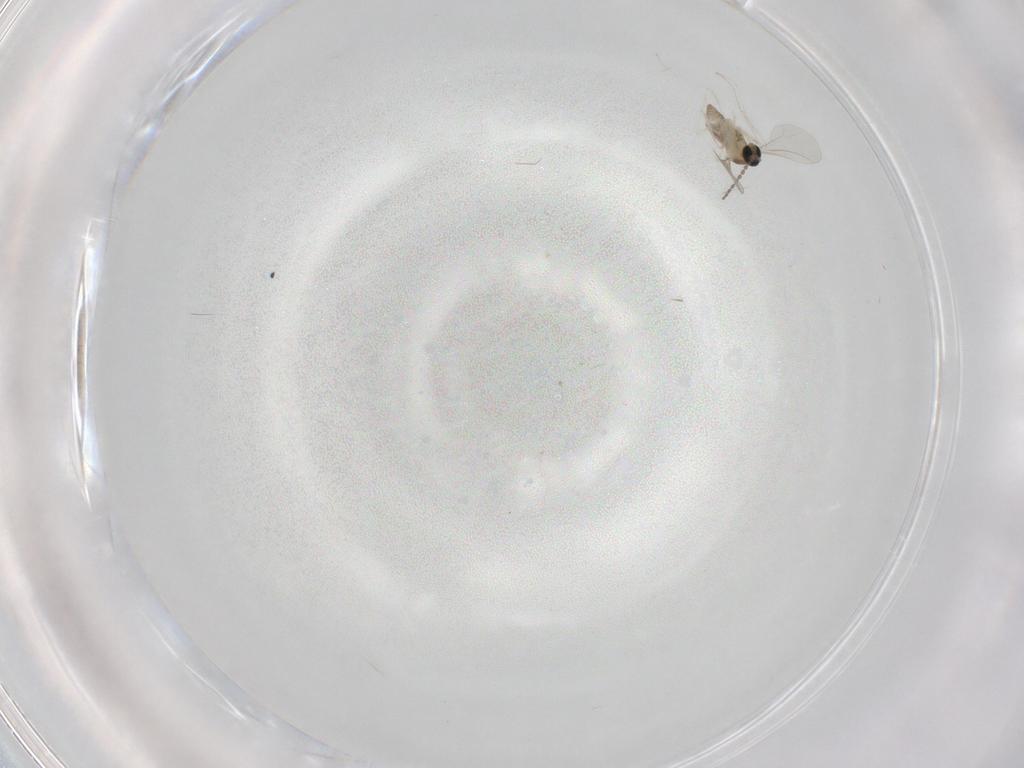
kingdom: Animalia
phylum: Arthropoda
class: Insecta
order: Diptera
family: Cecidomyiidae
